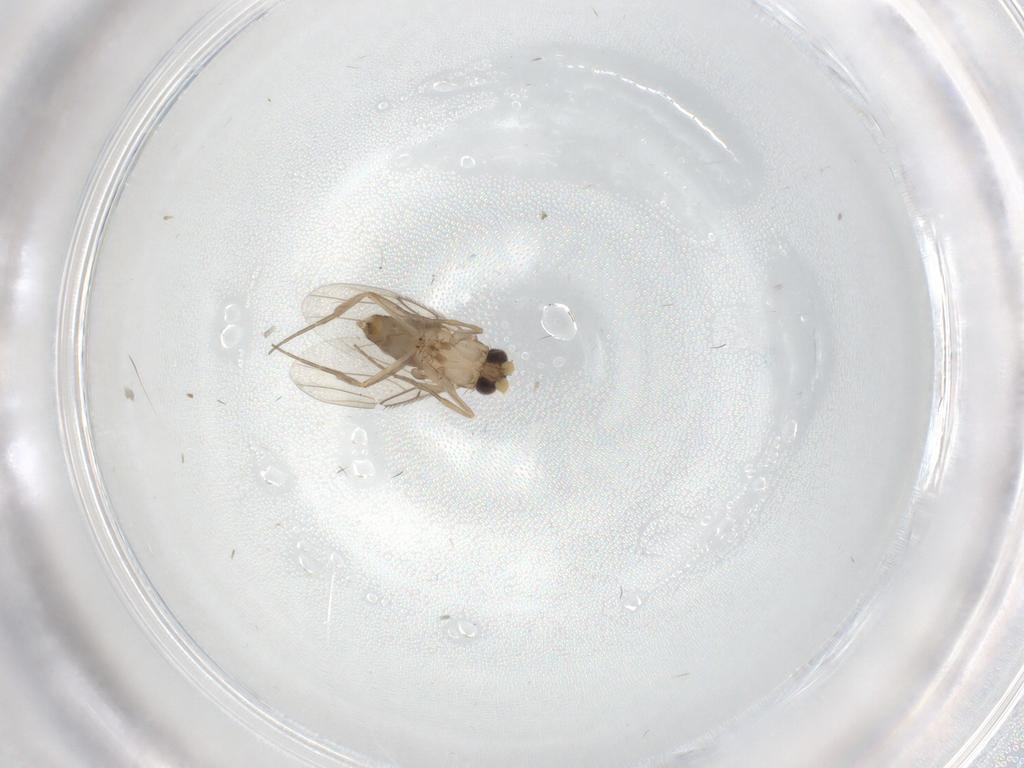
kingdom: Animalia
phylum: Arthropoda
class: Insecta
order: Diptera
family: Phoridae
